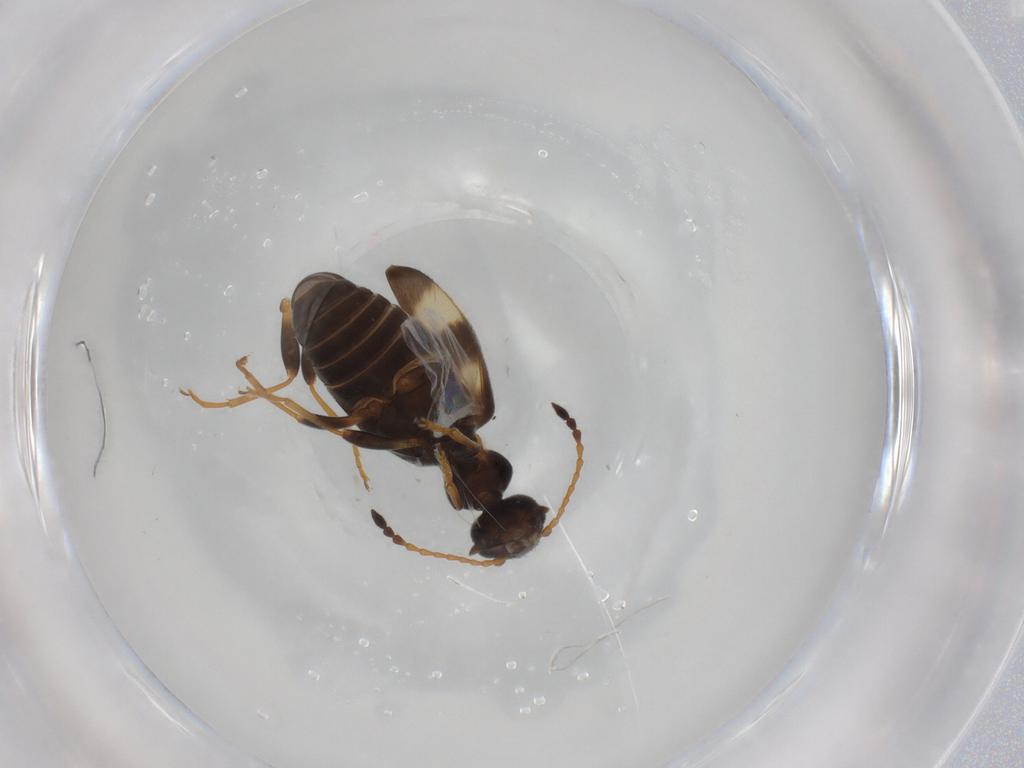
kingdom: Animalia
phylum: Arthropoda
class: Insecta
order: Coleoptera
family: Anthicidae
